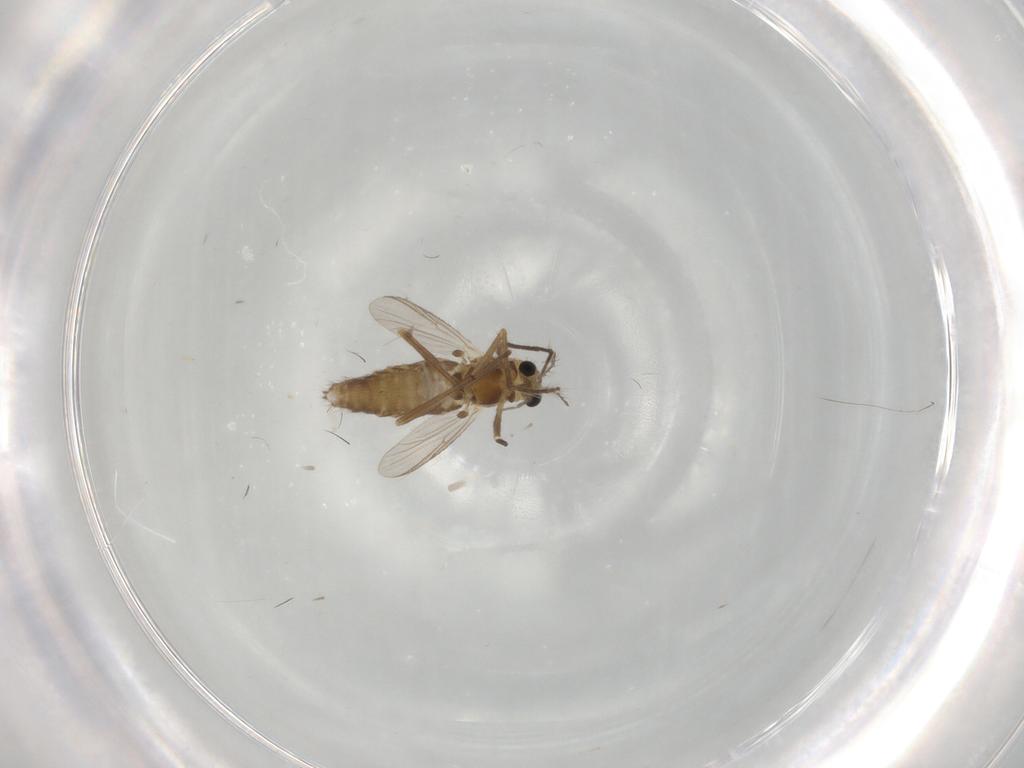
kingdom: Animalia
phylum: Arthropoda
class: Insecta
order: Diptera
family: Chironomidae
